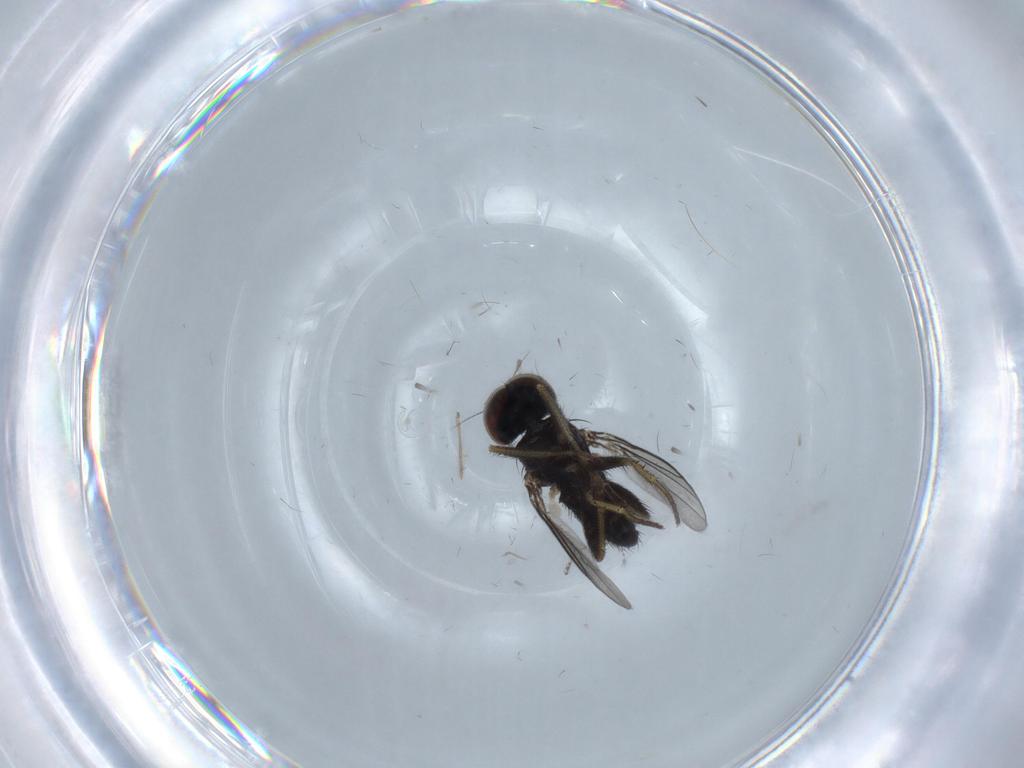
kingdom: Animalia
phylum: Arthropoda
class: Insecta
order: Diptera
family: Dolichopodidae
